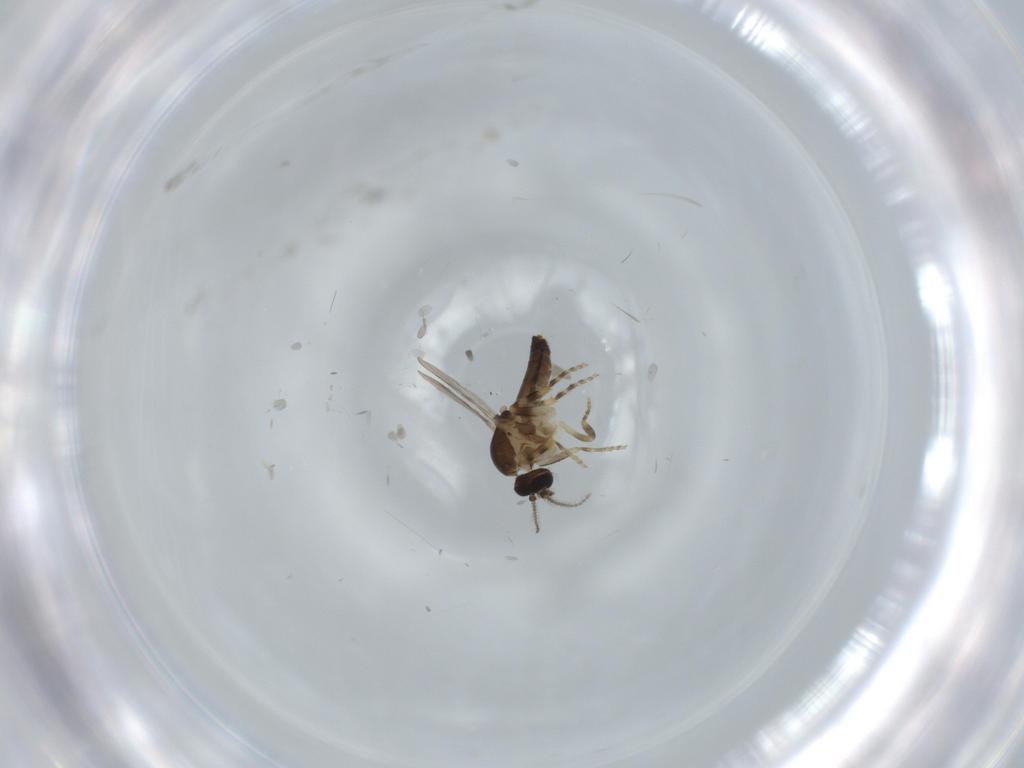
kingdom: Animalia
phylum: Arthropoda
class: Insecta
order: Diptera
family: Ceratopogonidae
